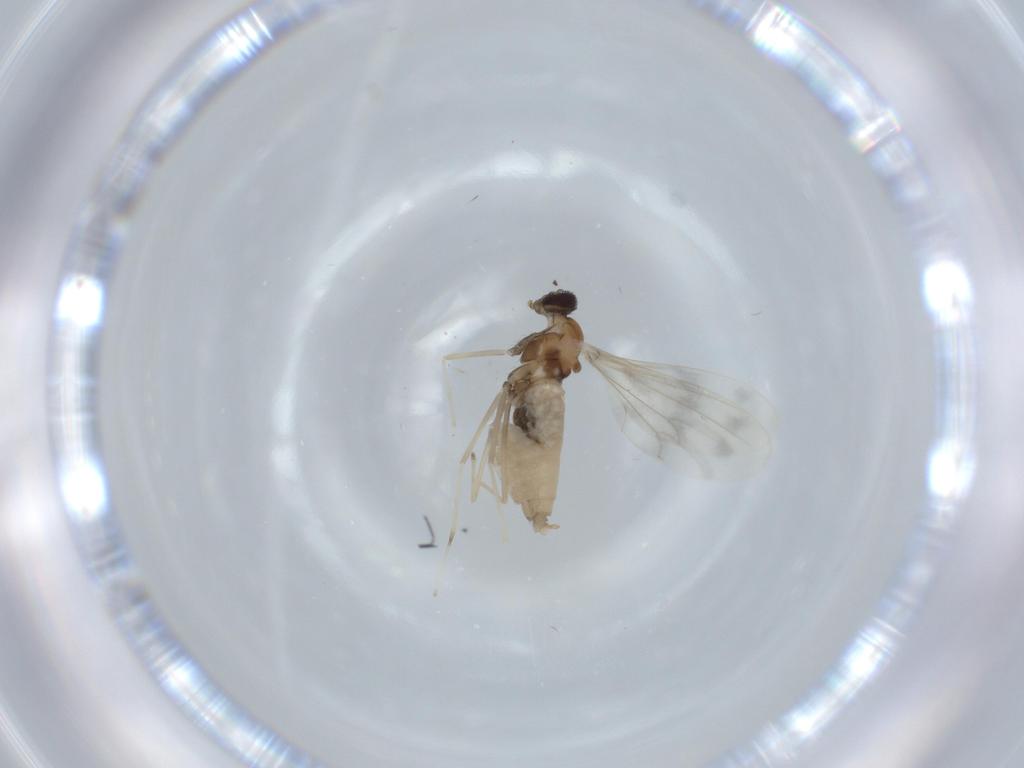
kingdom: Animalia
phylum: Arthropoda
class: Insecta
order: Diptera
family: Cecidomyiidae
